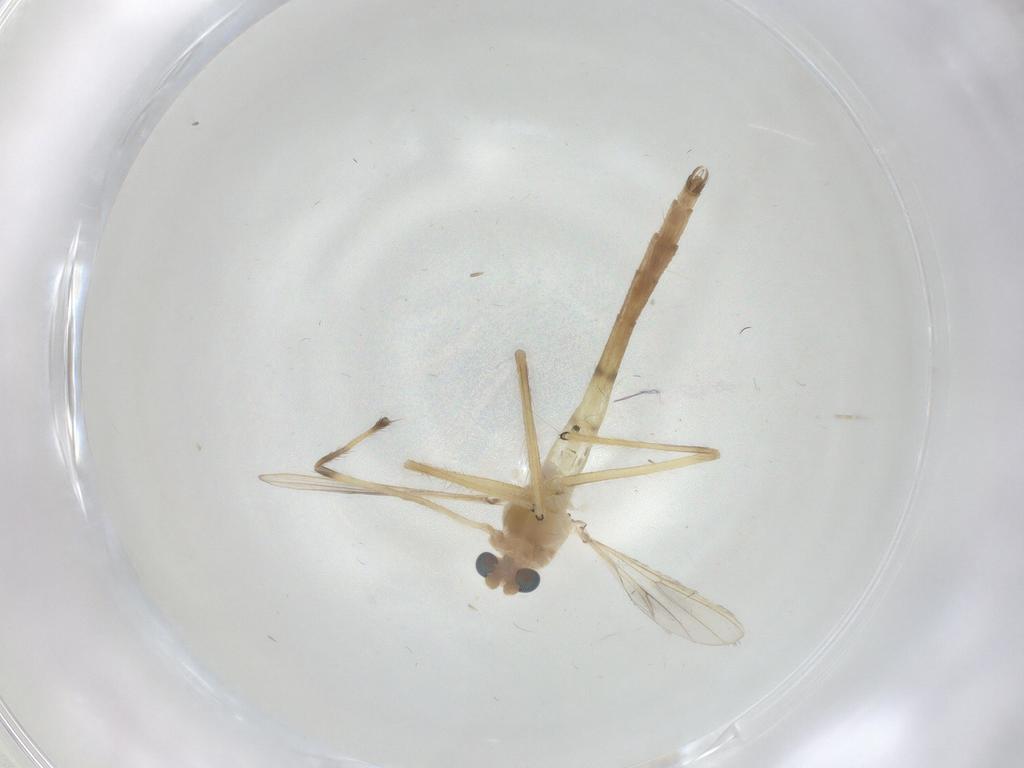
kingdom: Animalia
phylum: Arthropoda
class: Insecta
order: Diptera
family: Chironomidae
